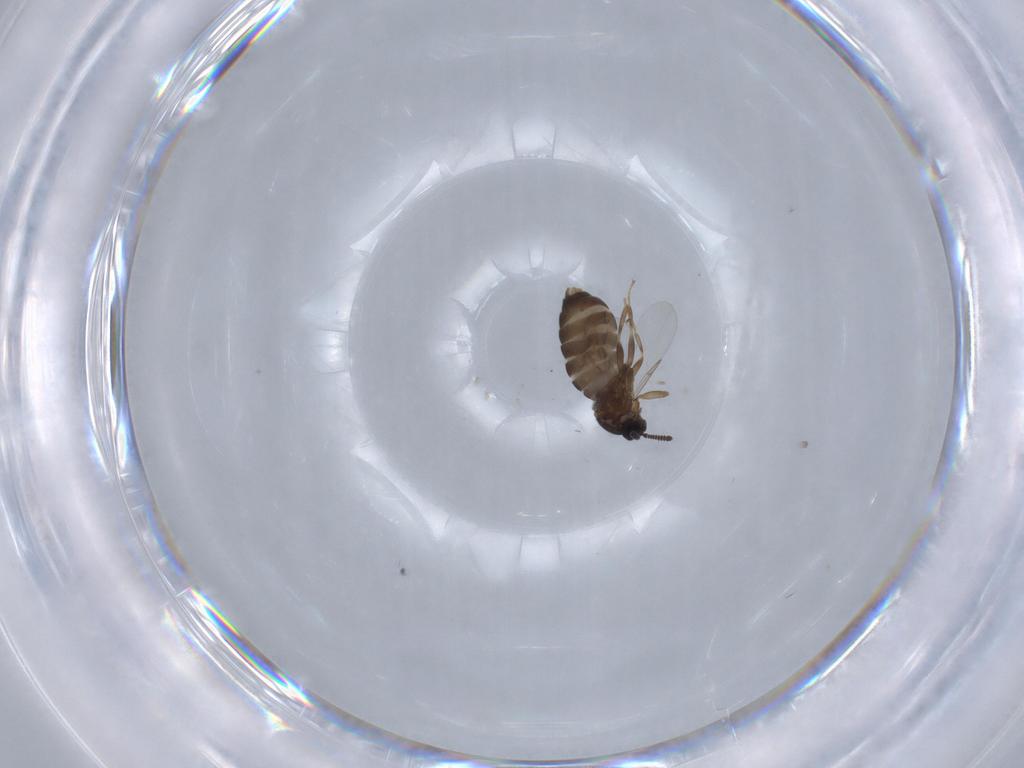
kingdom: Animalia
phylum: Arthropoda
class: Insecta
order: Diptera
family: Scatopsidae
